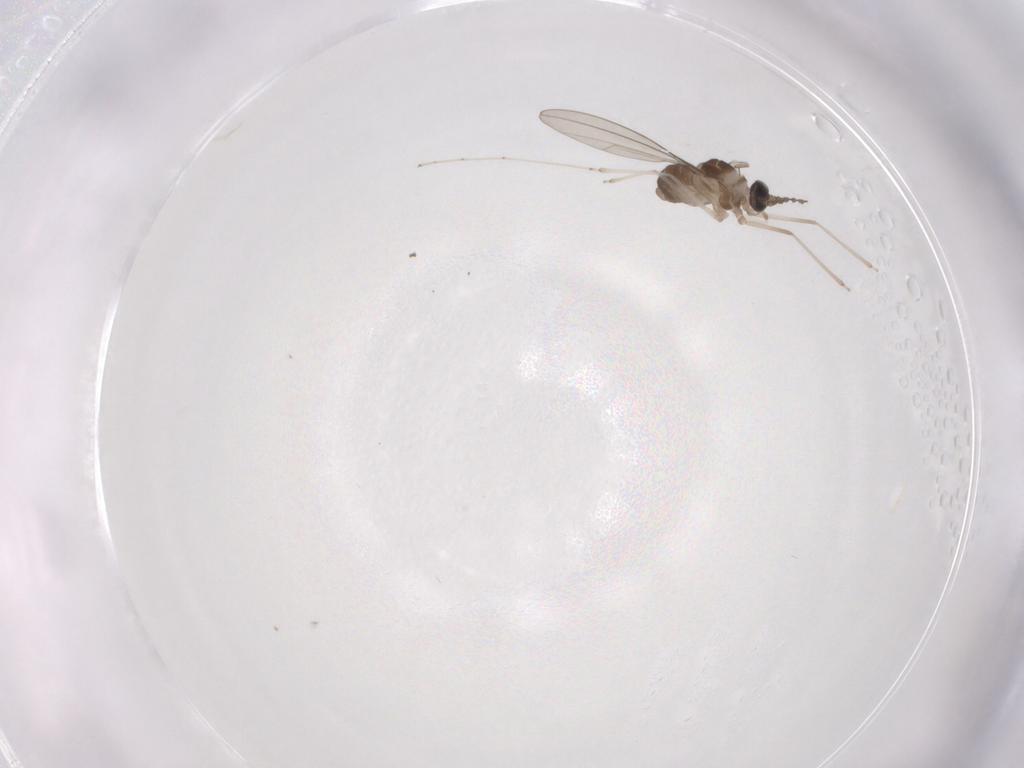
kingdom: Animalia
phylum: Arthropoda
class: Insecta
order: Diptera
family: Cecidomyiidae
